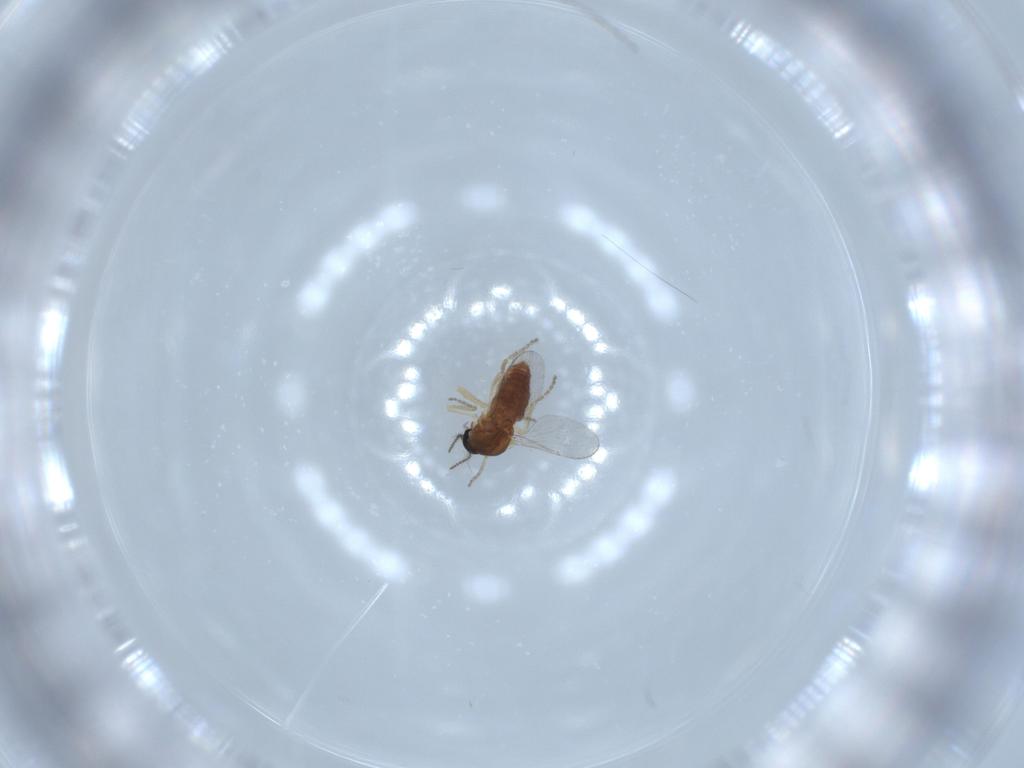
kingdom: Animalia
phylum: Arthropoda
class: Insecta
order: Diptera
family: Ceratopogonidae
